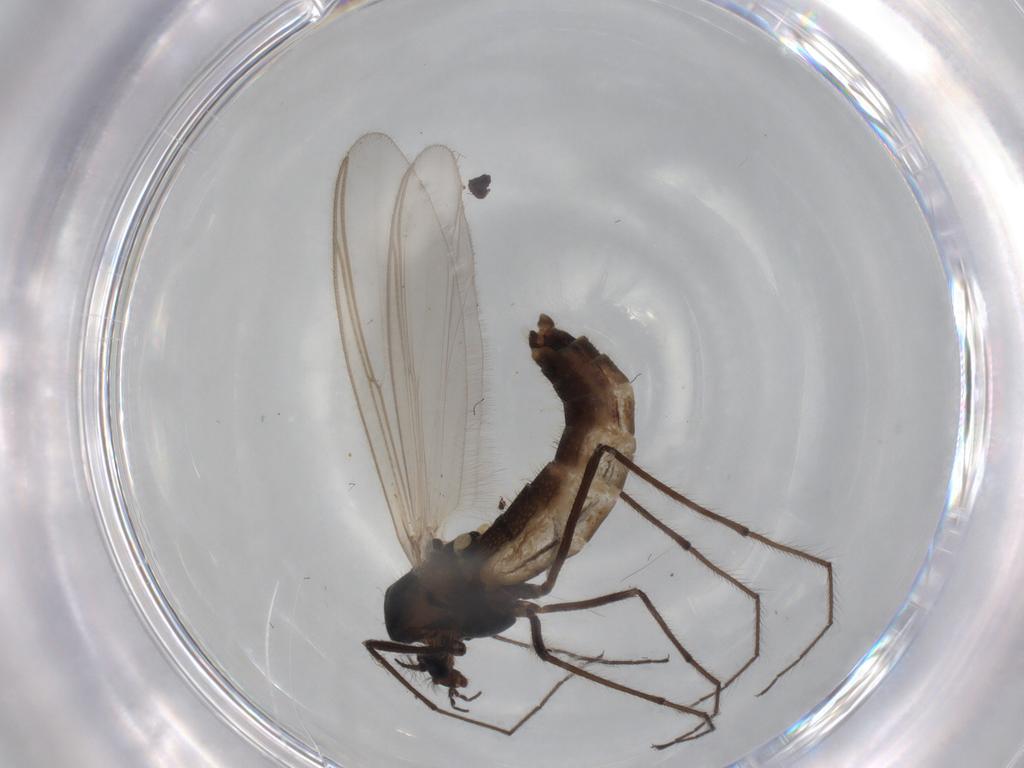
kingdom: Animalia
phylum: Arthropoda
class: Insecta
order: Diptera
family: Chironomidae
